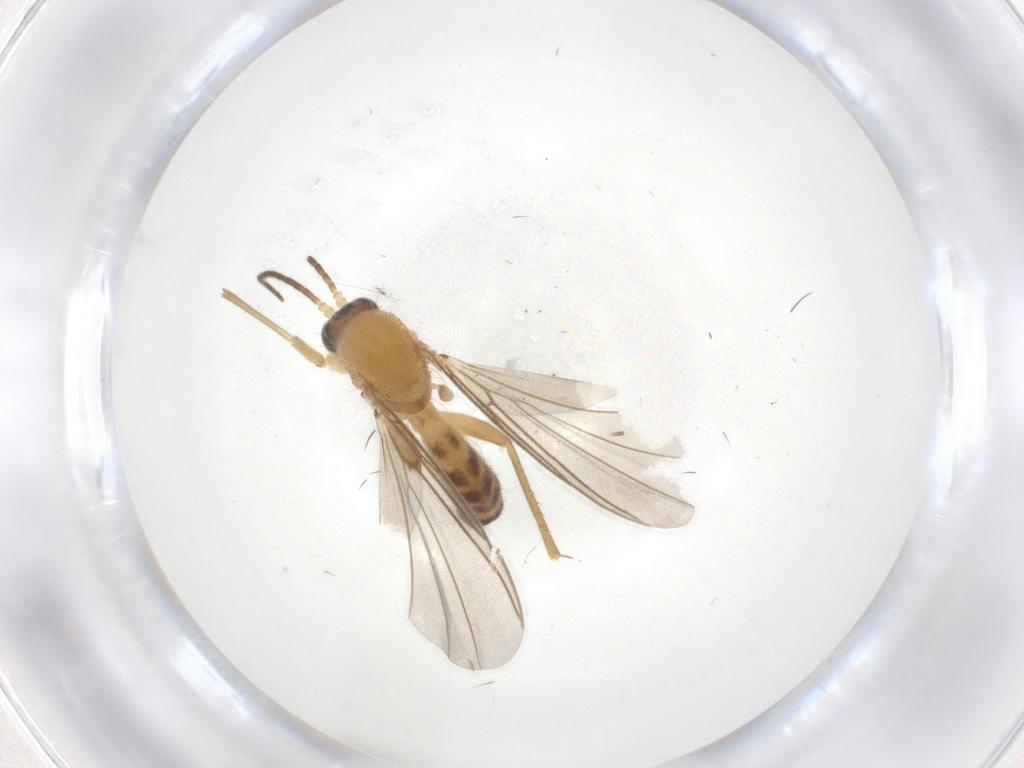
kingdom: Animalia
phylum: Arthropoda
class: Insecta
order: Diptera
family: Mycetophilidae
